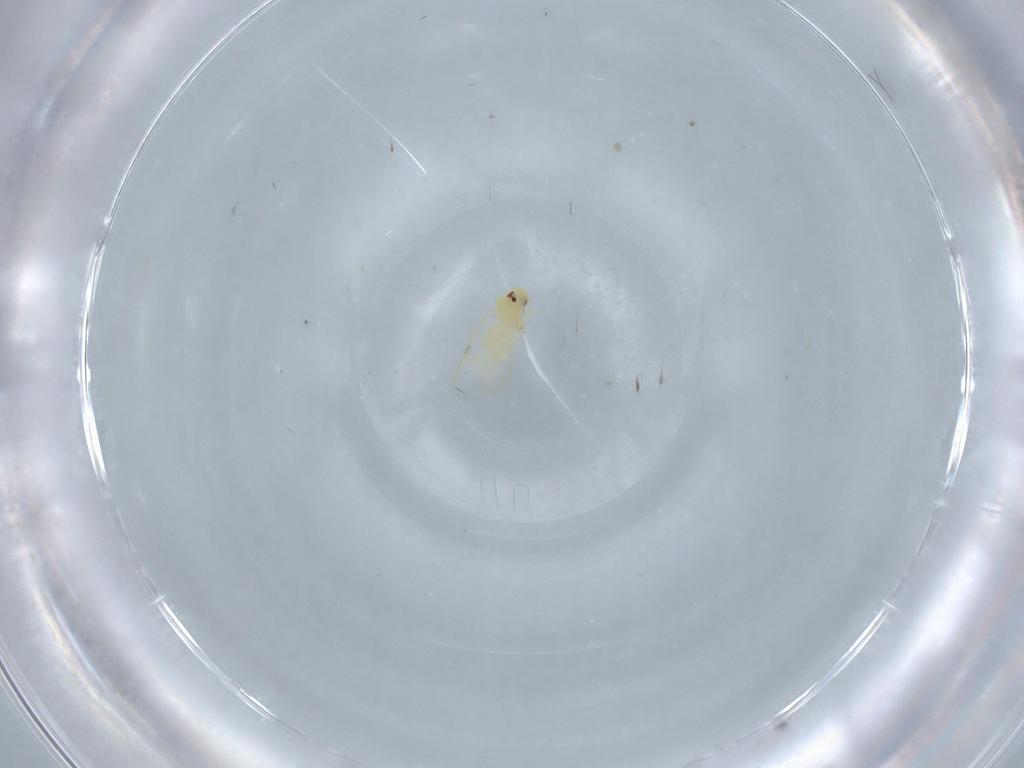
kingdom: Animalia
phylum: Arthropoda
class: Insecta
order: Hemiptera
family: Aleyrodidae
